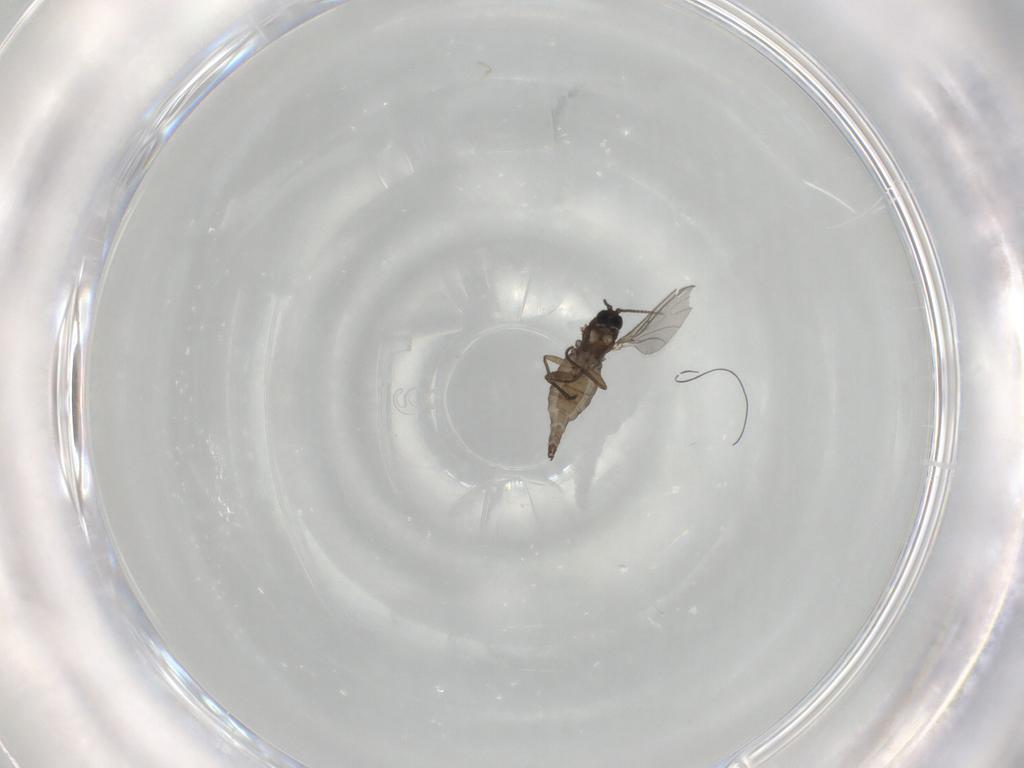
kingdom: Animalia
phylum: Arthropoda
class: Insecta
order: Diptera
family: Sciaridae
